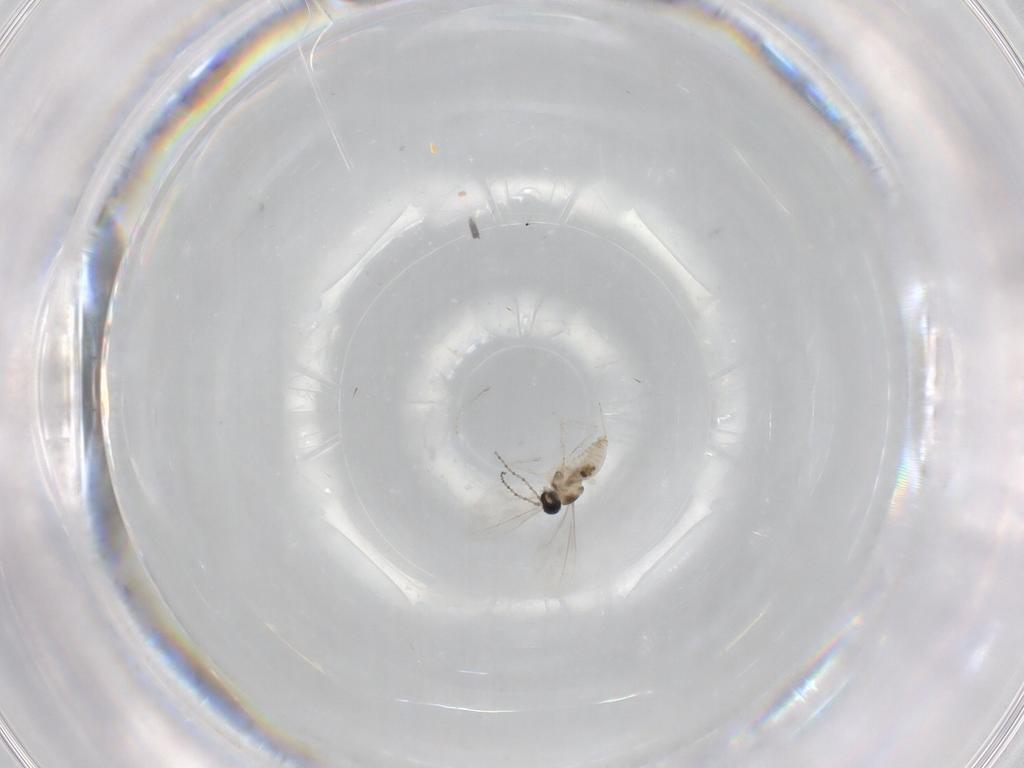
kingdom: Animalia
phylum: Arthropoda
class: Insecta
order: Diptera
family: Cecidomyiidae
